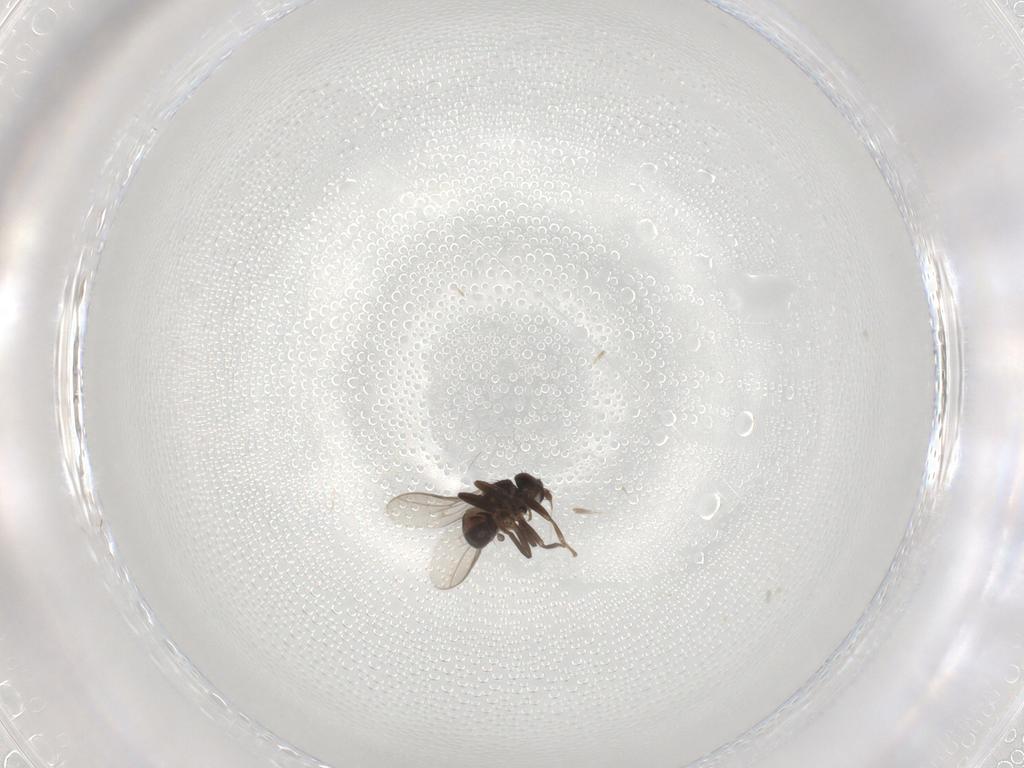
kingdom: Animalia
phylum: Arthropoda
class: Insecta
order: Diptera
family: Sphaeroceridae
